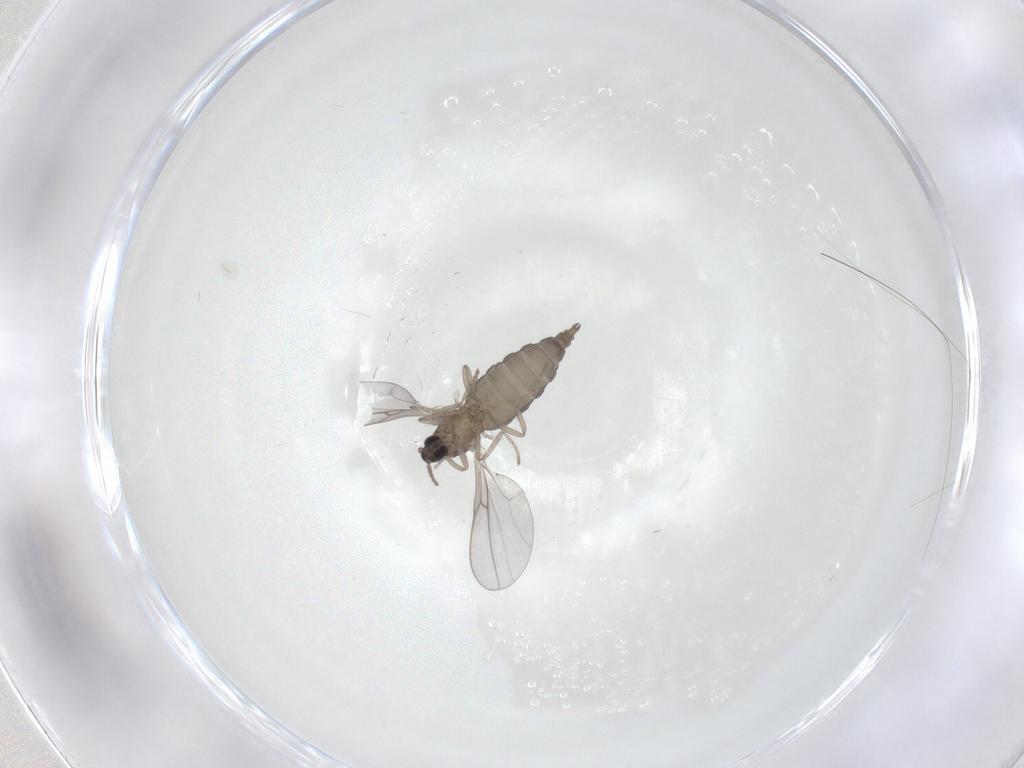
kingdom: Animalia
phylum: Arthropoda
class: Insecta
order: Diptera
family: Cecidomyiidae
